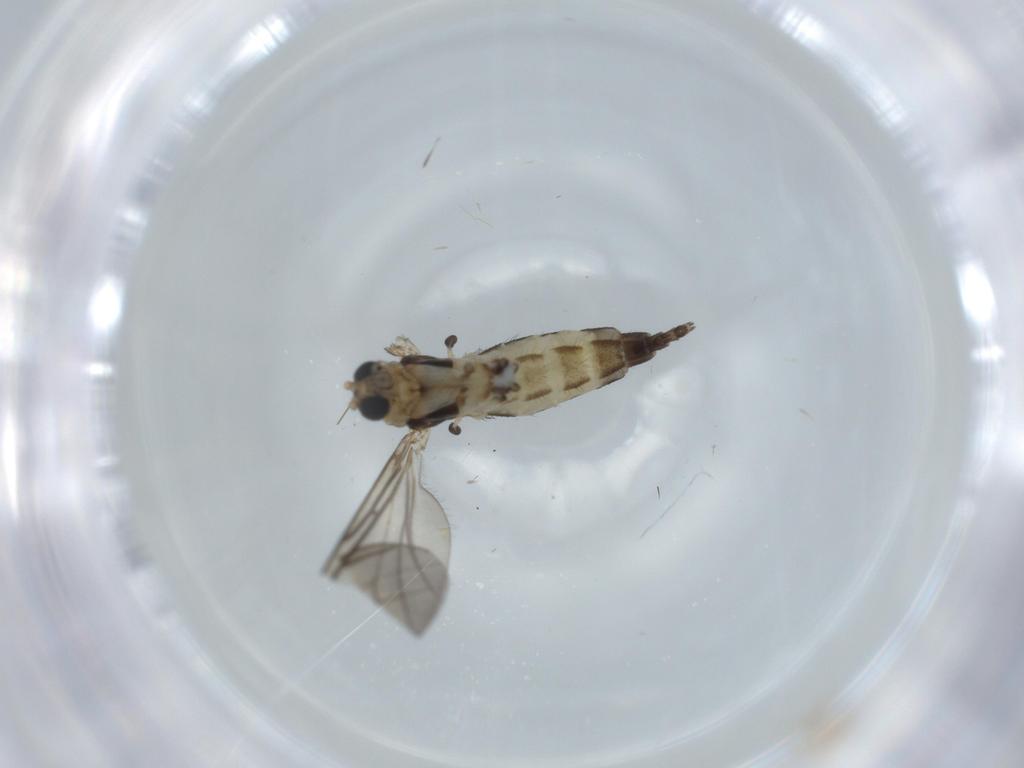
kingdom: Animalia
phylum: Arthropoda
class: Insecta
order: Diptera
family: Sciaridae
